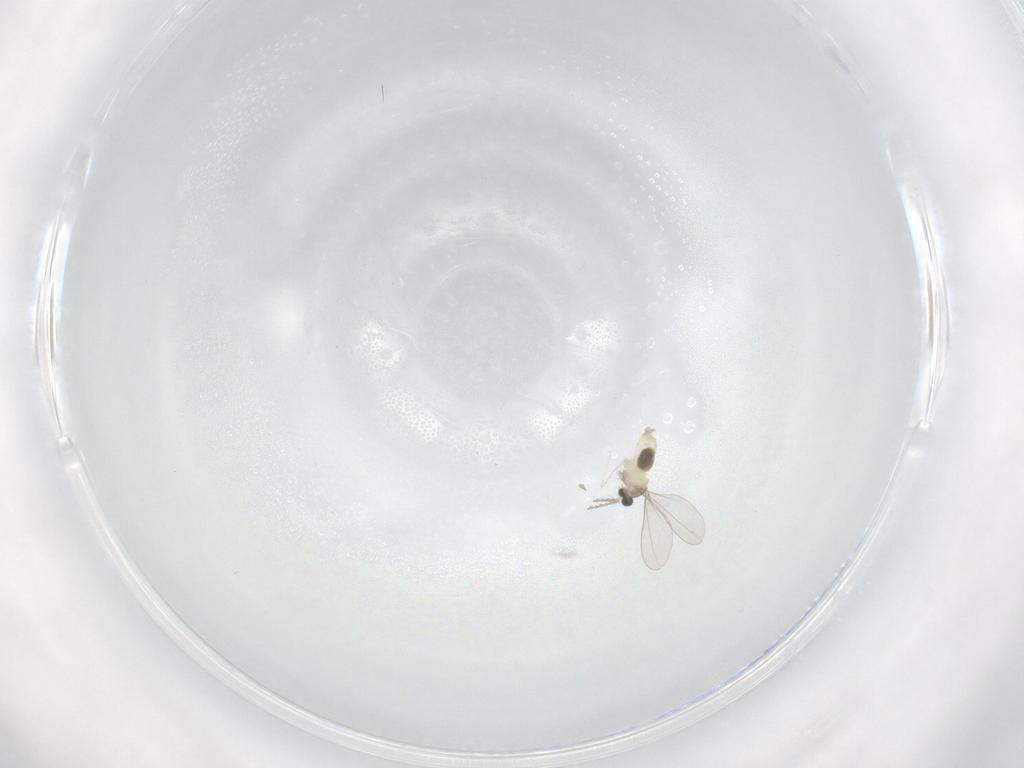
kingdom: Animalia
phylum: Arthropoda
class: Insecta
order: Diptera
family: Cecidomyiidae
